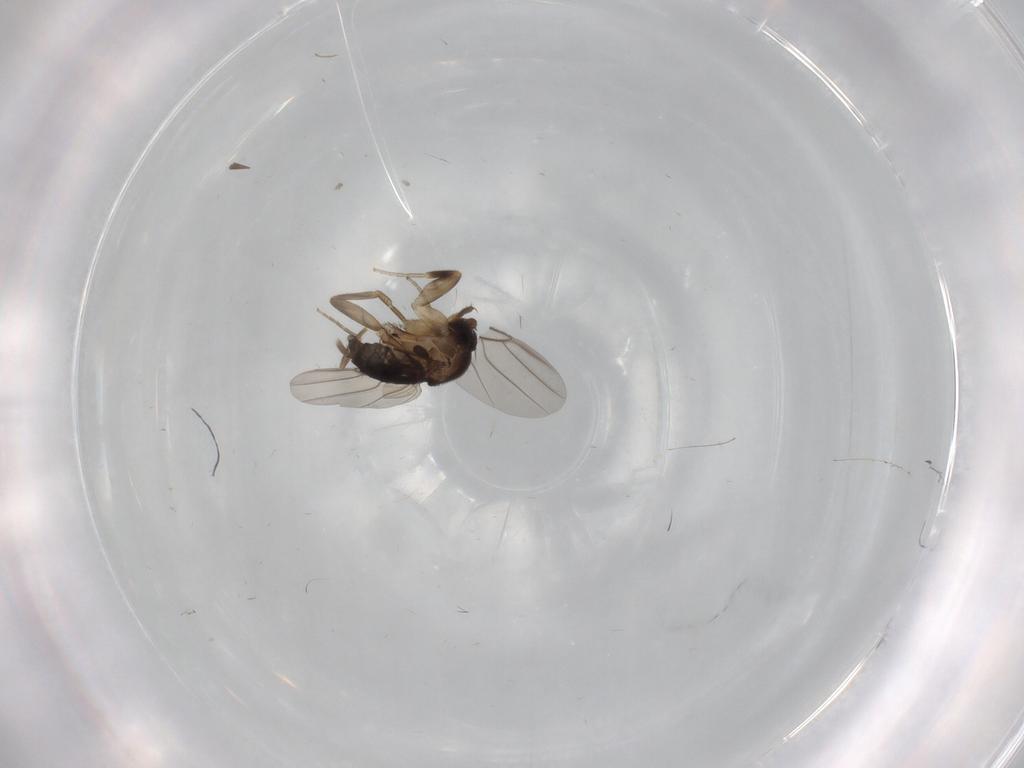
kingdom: Animalia
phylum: Arthropoda
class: Insecta
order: Diptera
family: Phoridae
